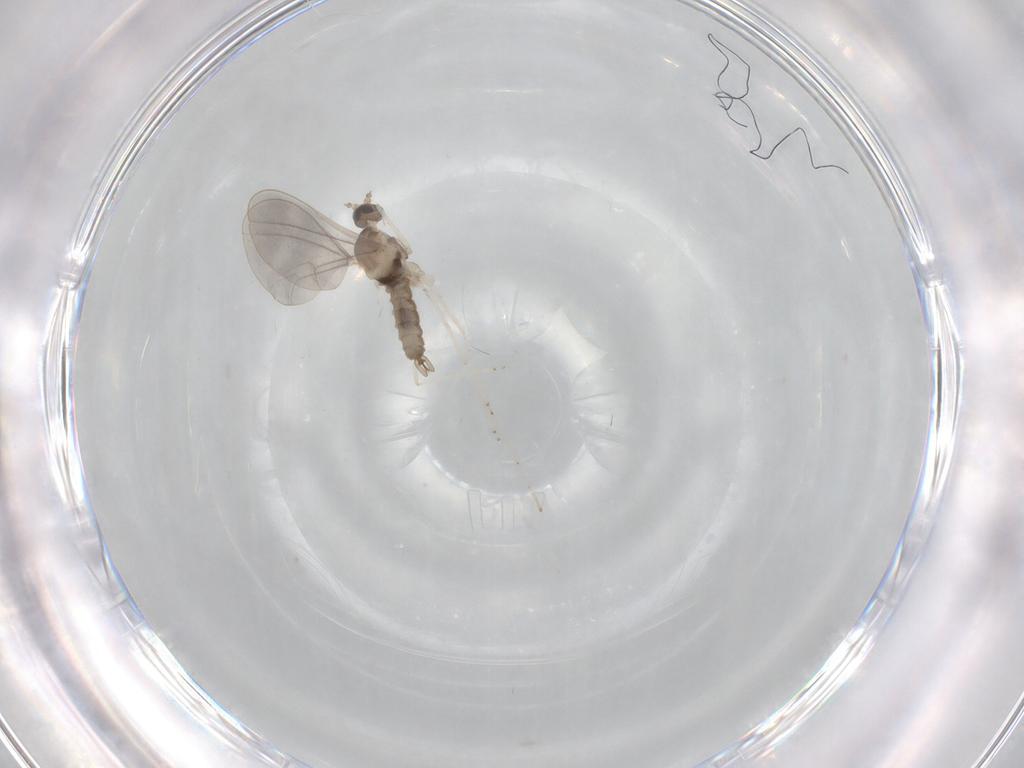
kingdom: Animalia
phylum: Arthropoda
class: Insecta
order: Diptera
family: Cecidomyiidae
